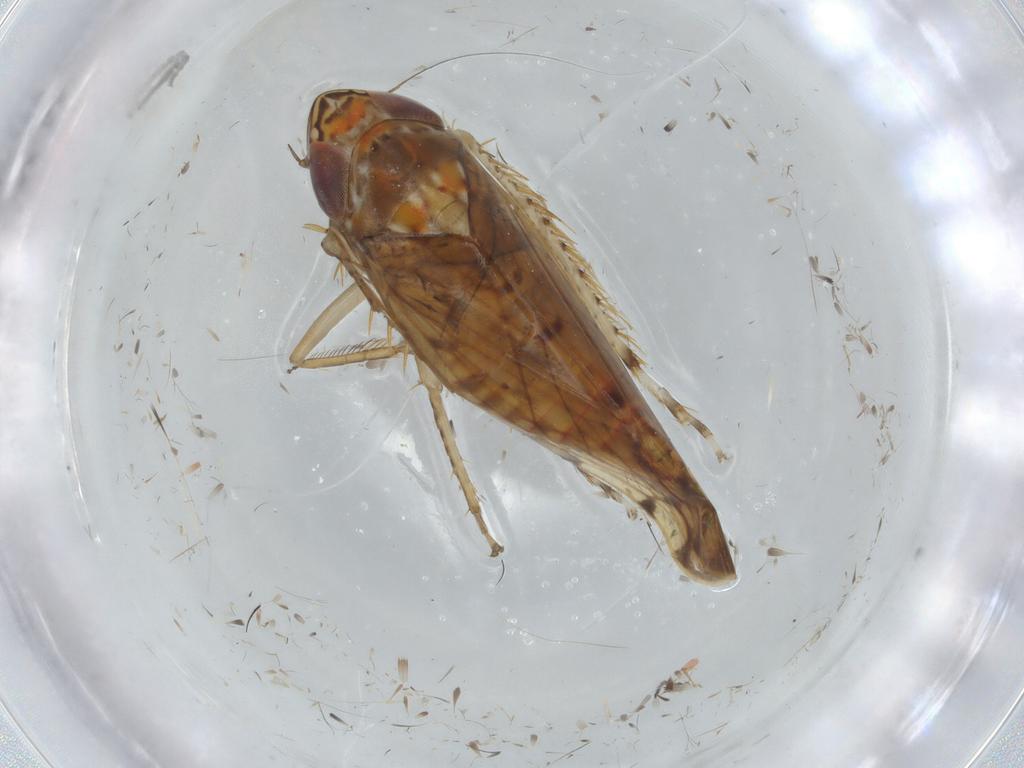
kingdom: Animalia
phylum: Arthropoda
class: Insecta
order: Hemiptera
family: Cicadellidae
